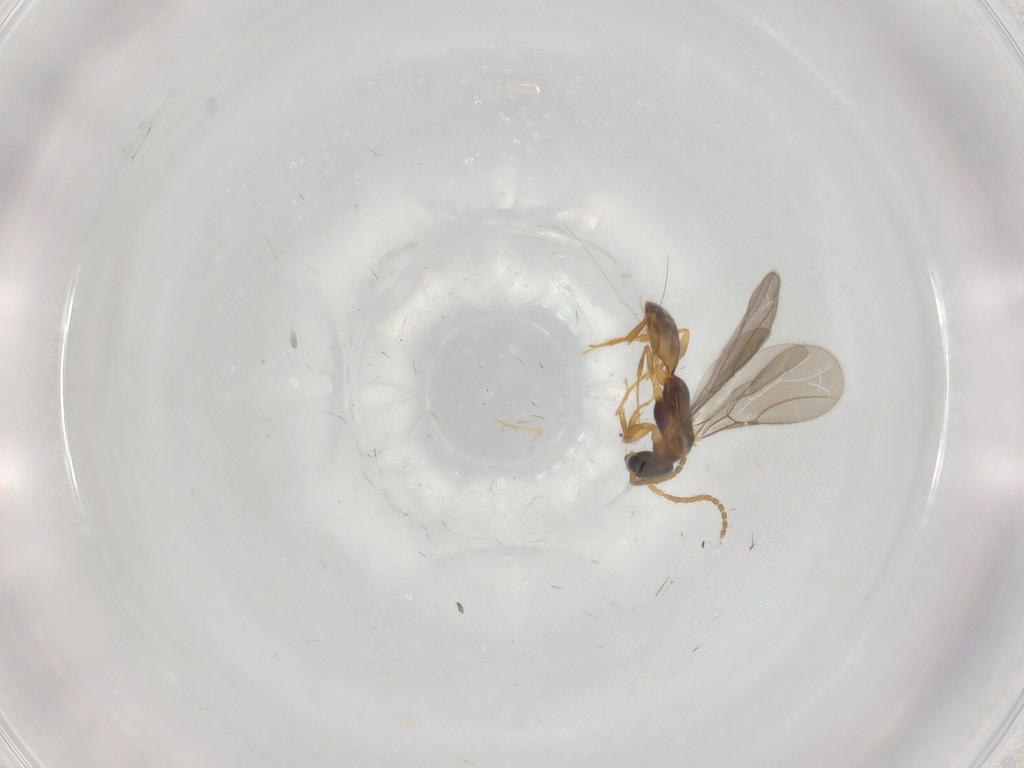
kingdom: Animalia
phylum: Arthropoda
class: Insecta
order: Hymenoptera
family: Bethylidae
